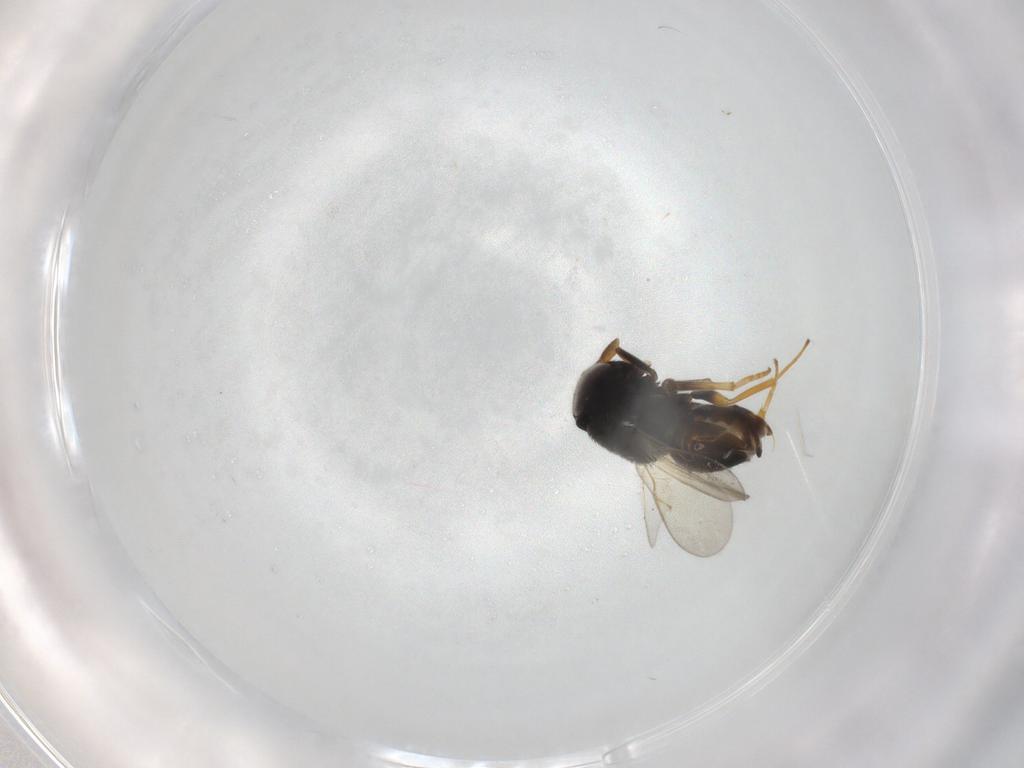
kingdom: Animalia
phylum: Arthropoda
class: Insecta
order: Hymenoptera
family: Encyrtidae
